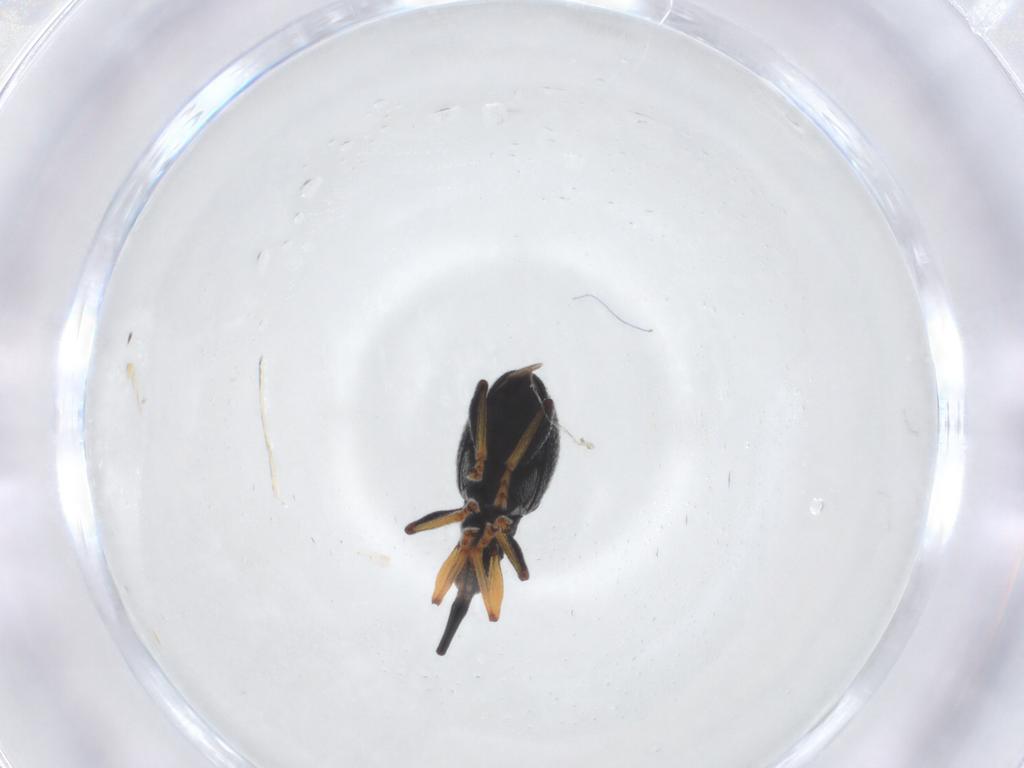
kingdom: Animalia
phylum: Arthropoda
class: Insecta
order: Coleoptera
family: Brentidae
